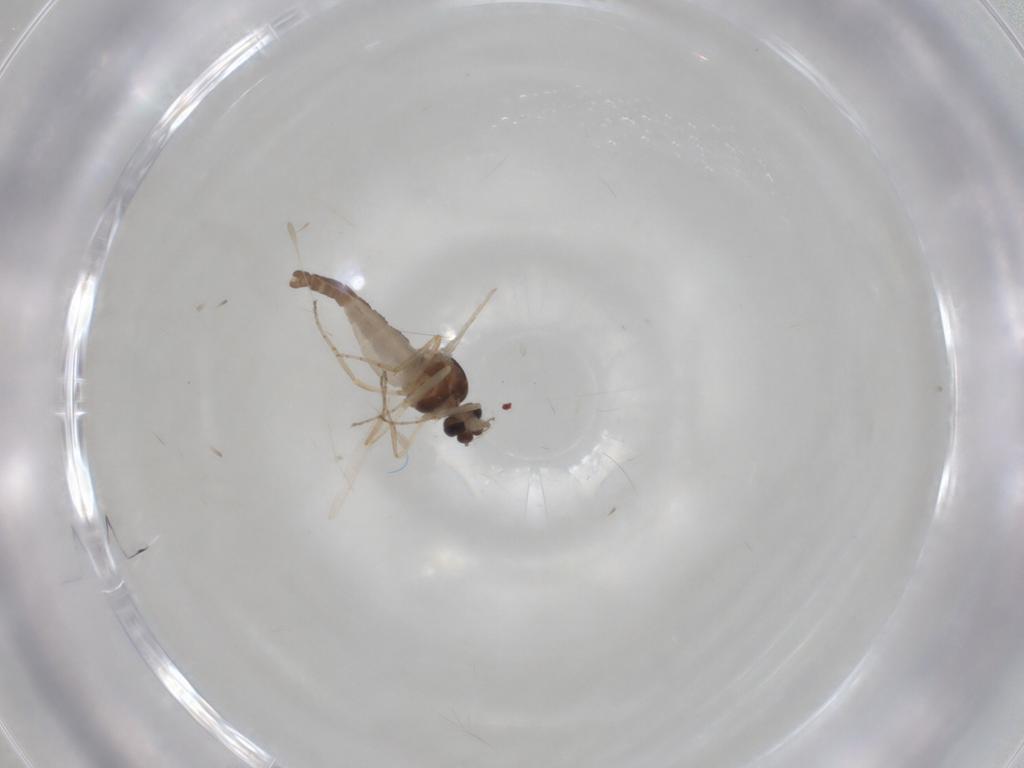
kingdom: Animalia
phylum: Arthropoda
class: Insecta
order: Diptera
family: Ceratopogonidae
